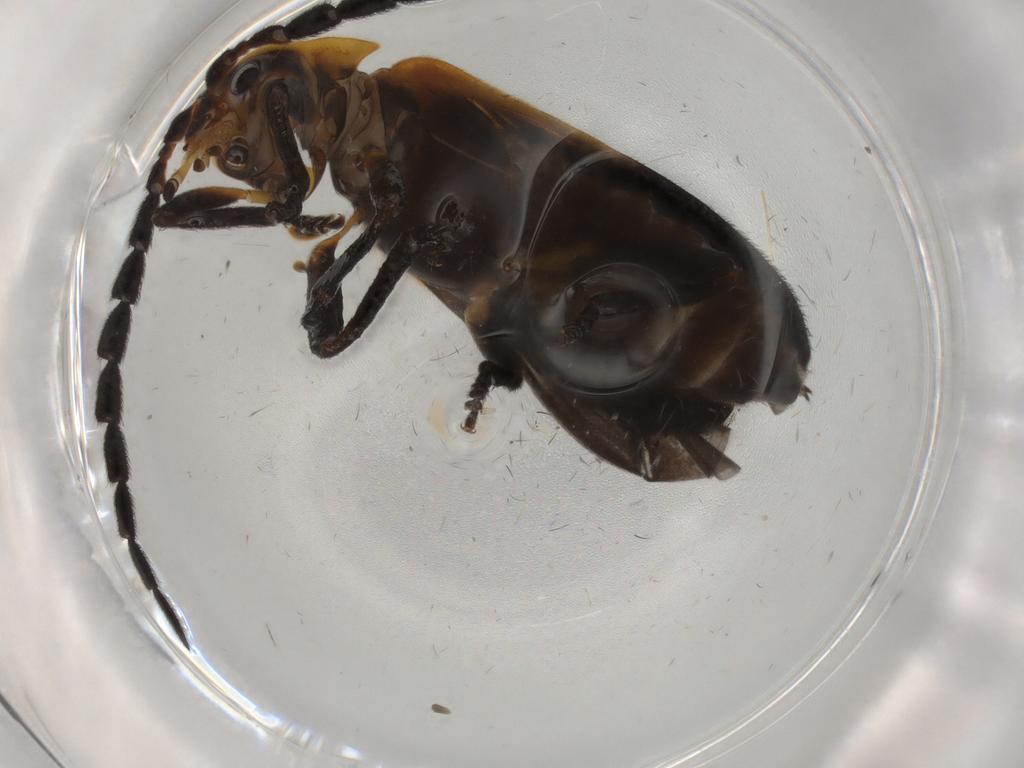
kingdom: Animalia
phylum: Arthropoda
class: Insecta
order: Coleoptera
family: Lycidae
